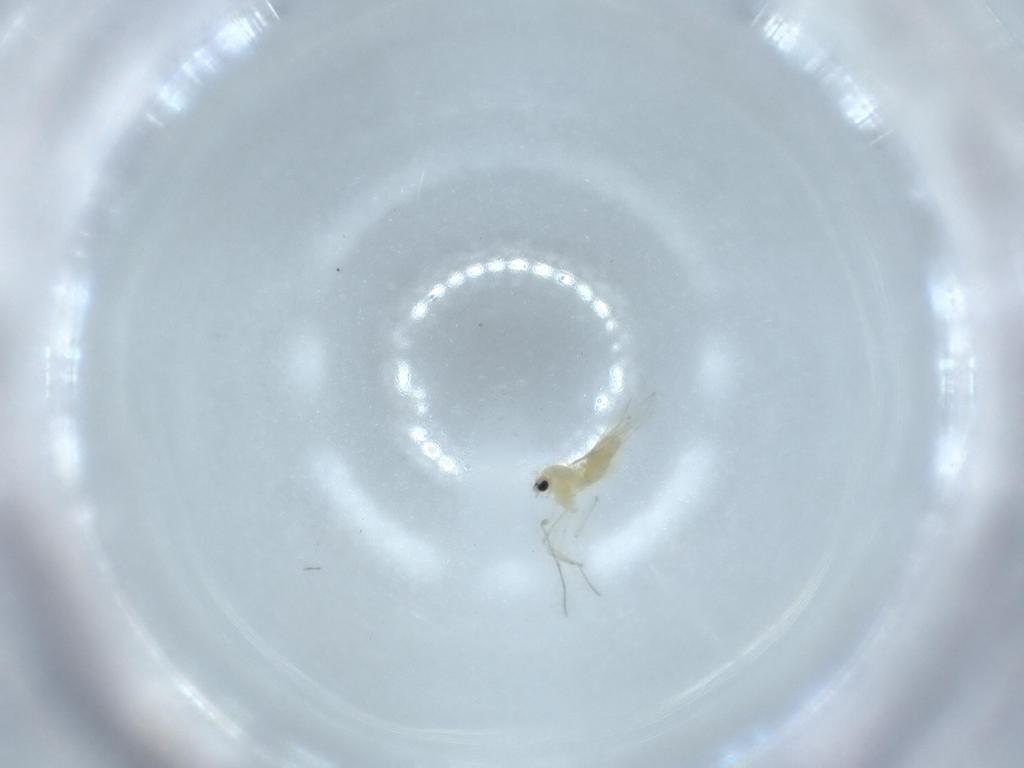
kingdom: Animalia
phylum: Arthropoda
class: Insecta
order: Diptera
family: Chironomidae
